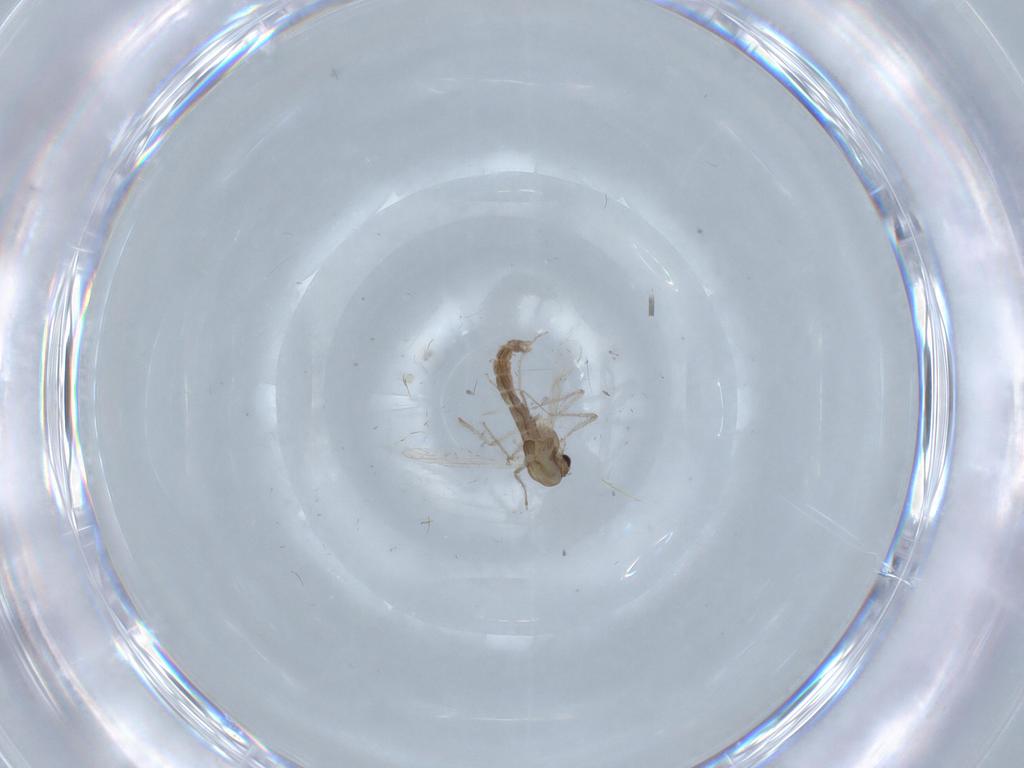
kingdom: Animalia
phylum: Arthropoda
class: Insecta
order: Diptera
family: Chironomidae
